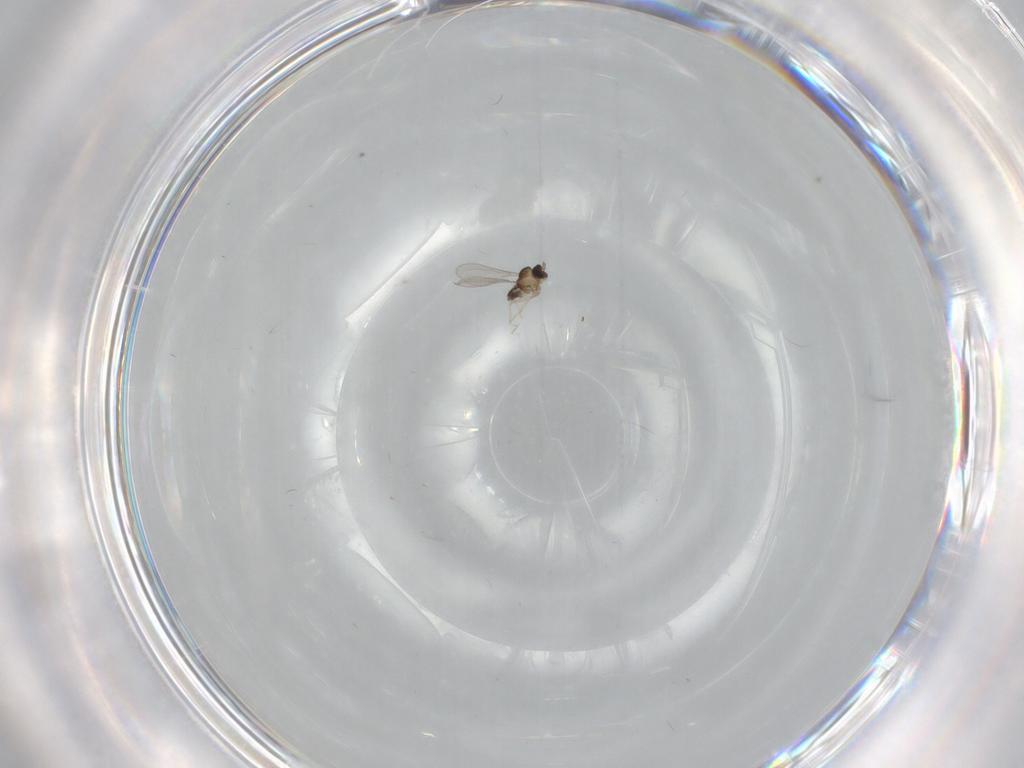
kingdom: Animalia
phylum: Arthropoda
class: Insecta
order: Diptera
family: Cecidomyiidae
